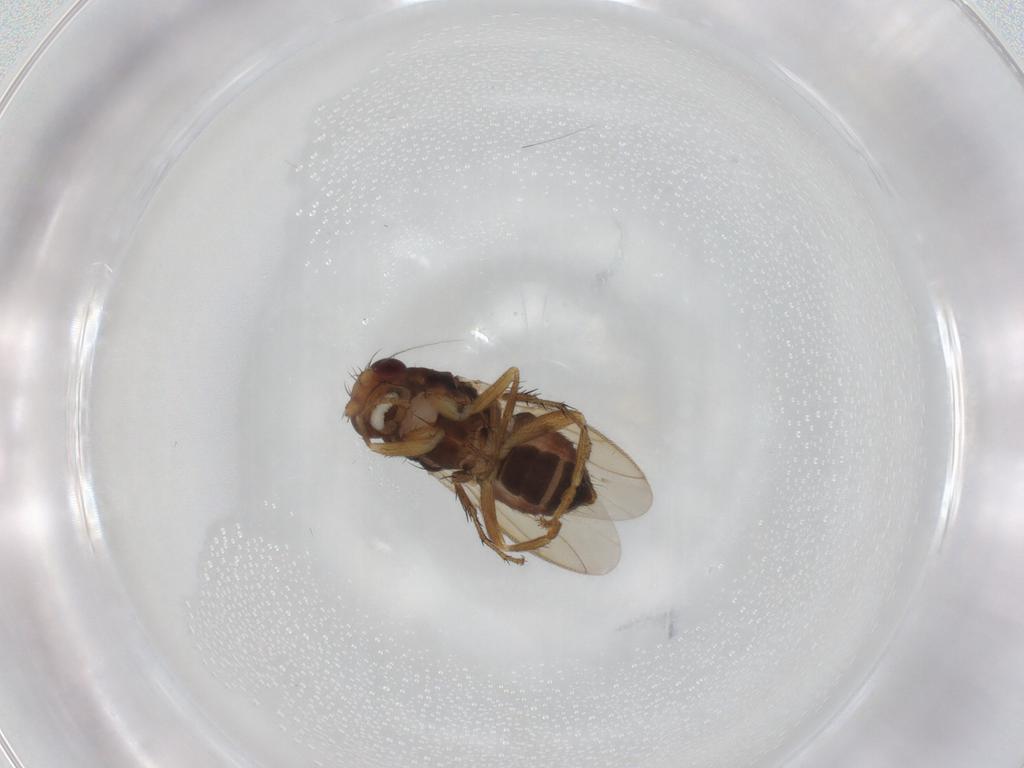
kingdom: Animalia
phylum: Arthropoda
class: Insecta
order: Diptera
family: Sphaeroceridae
